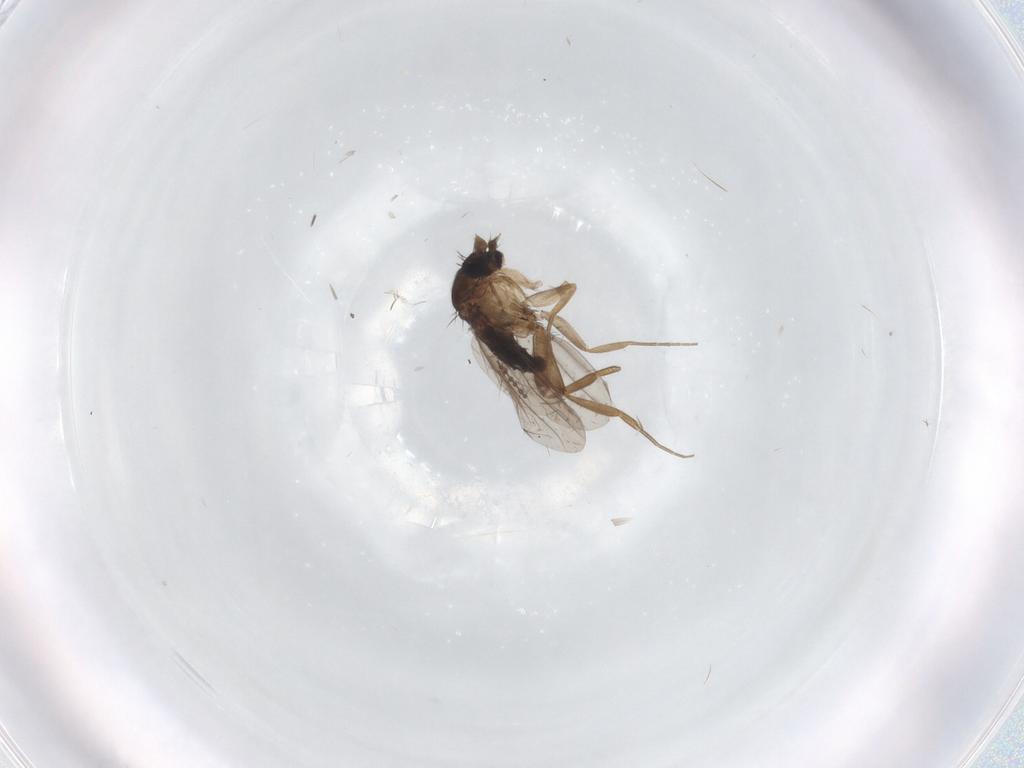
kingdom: Animalia
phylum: Arthropoda
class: Insecta
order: Diptera
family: Phoridae
